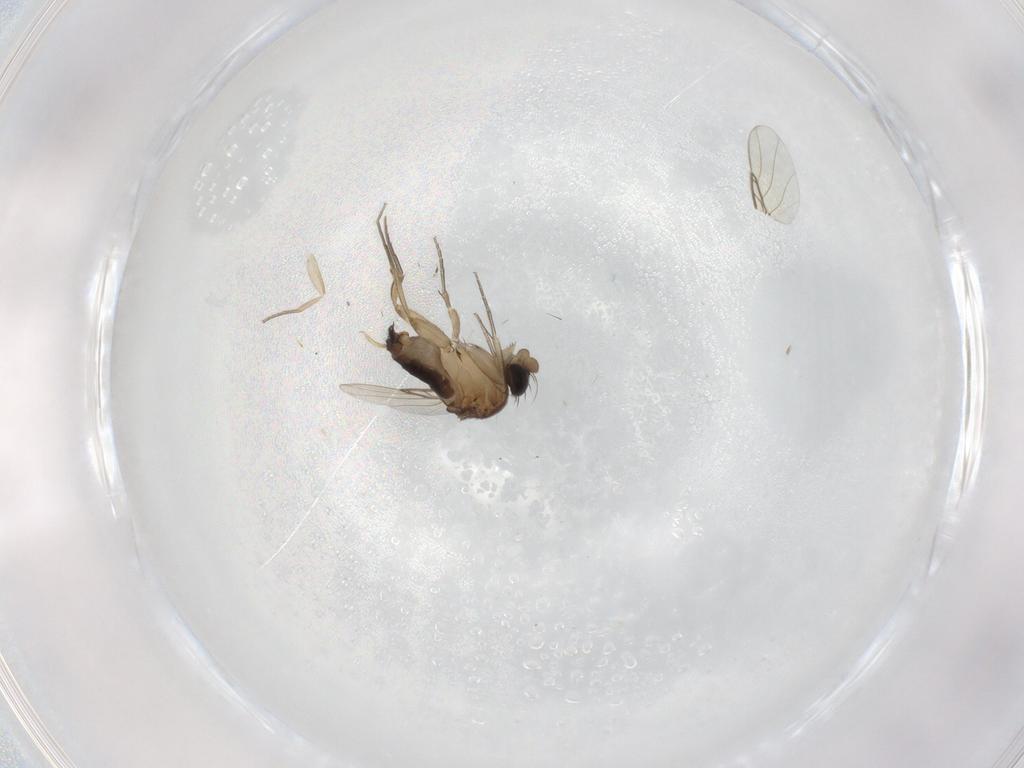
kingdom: Animalia
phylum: Arthropoda
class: Insecta
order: Diptera
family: Phoridae
